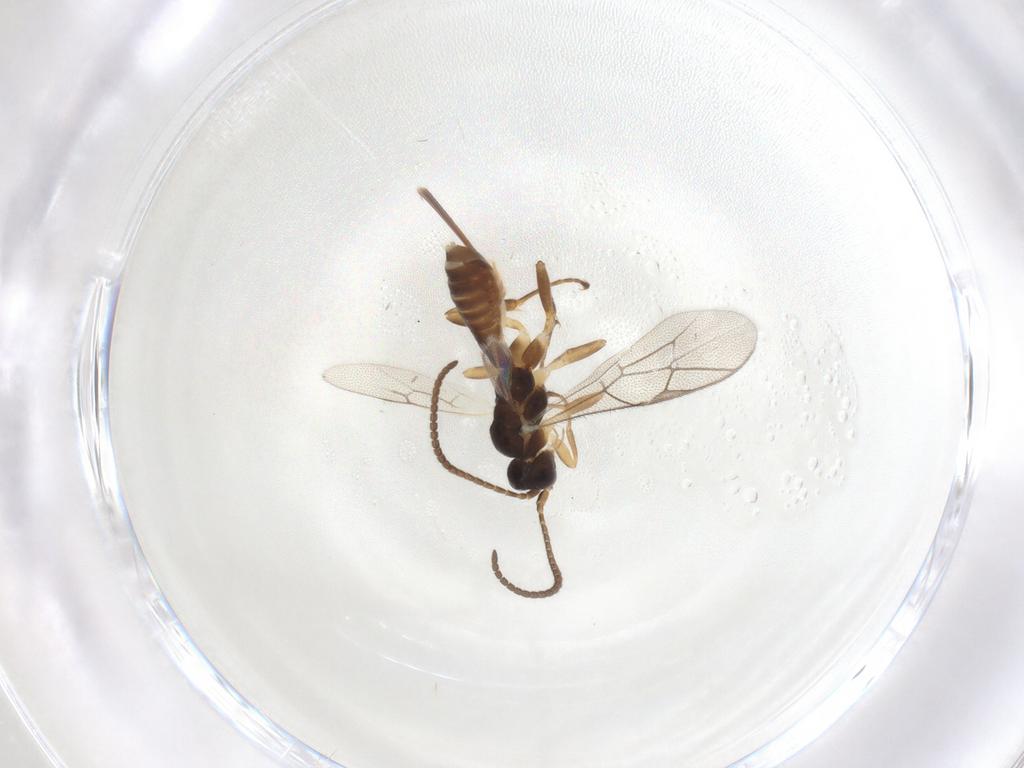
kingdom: Animalia
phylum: Arthropoda
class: Insecta
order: Hymenoptera
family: Ichneumonidae
